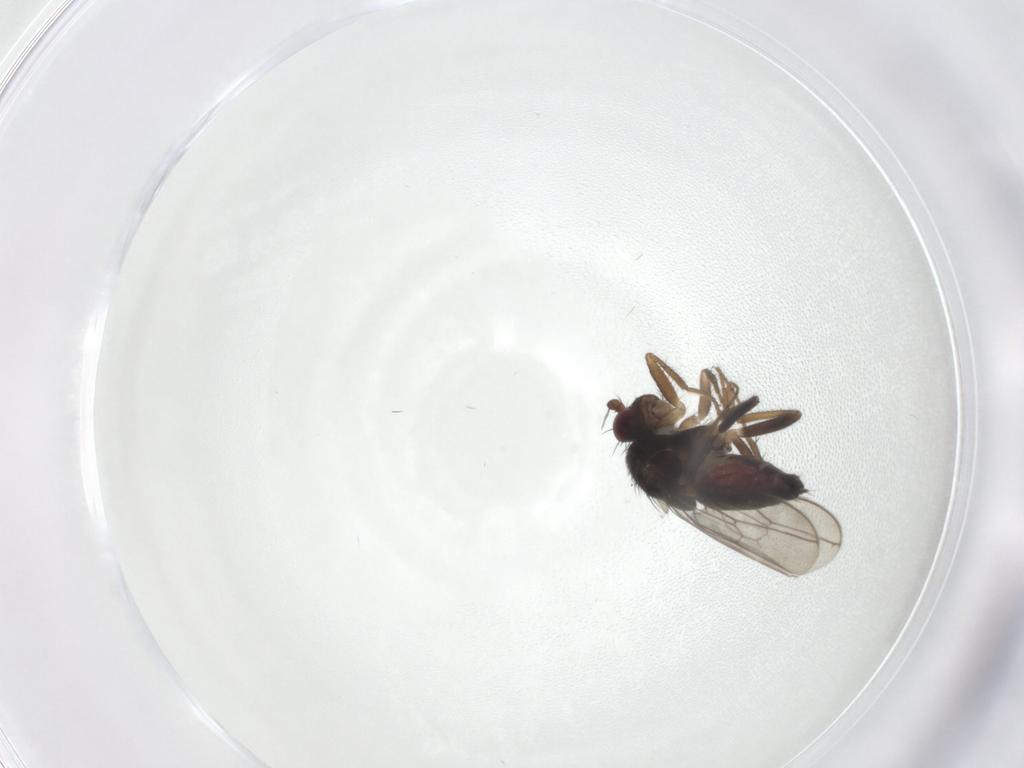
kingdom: Animalia
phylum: Arthropoda
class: Insecta
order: Diptera
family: Sphaeroceridae
